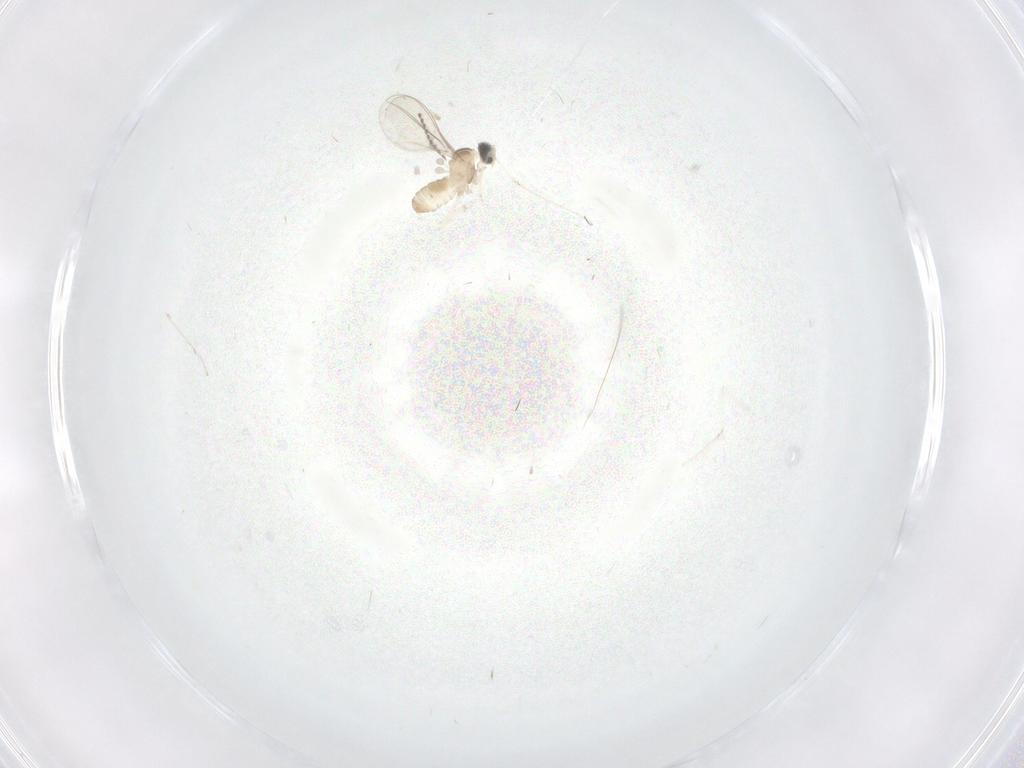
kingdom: Animalia
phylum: Arthropoda
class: Insecta
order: Diptera
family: Cecidomyiidae
